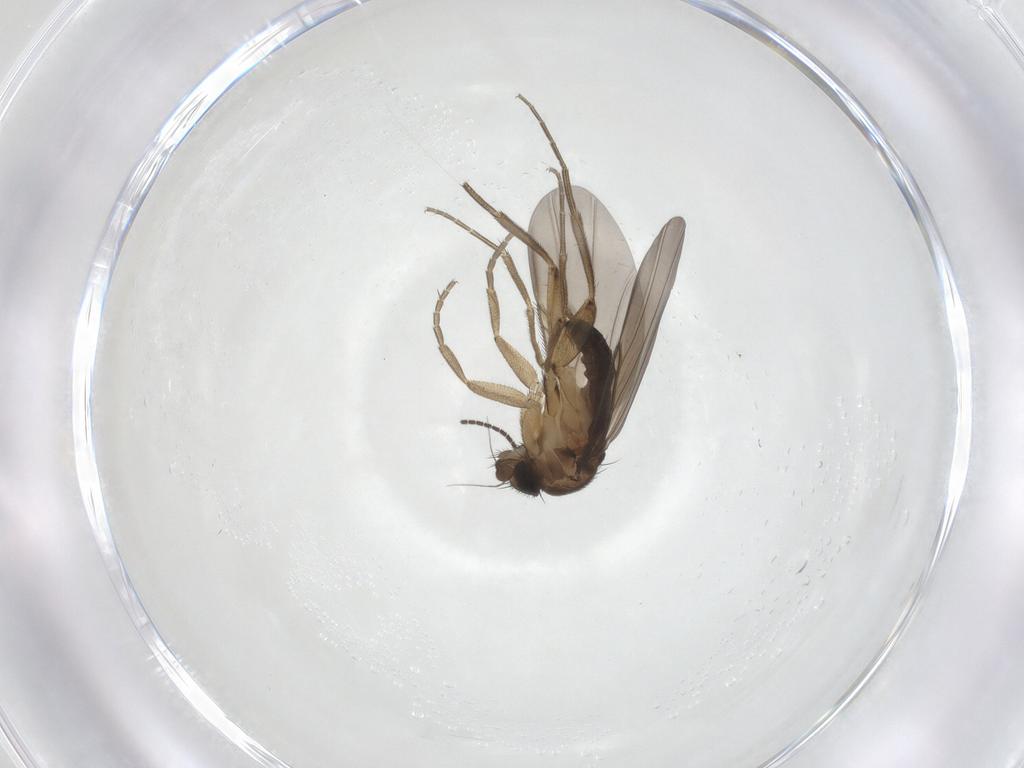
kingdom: Animalia
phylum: Arthropoda
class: Insecta
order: Diptera
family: Phoridae
